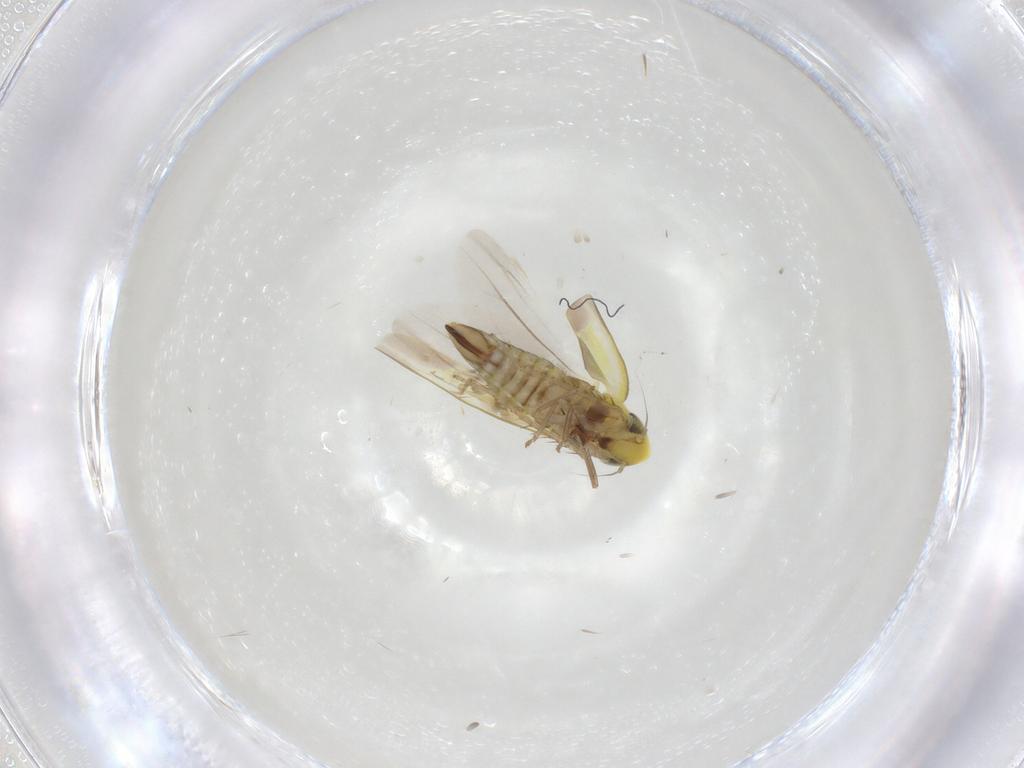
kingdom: Animalia
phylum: Arthropoda
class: Insecta
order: Hemiptera
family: Cicadellidae
